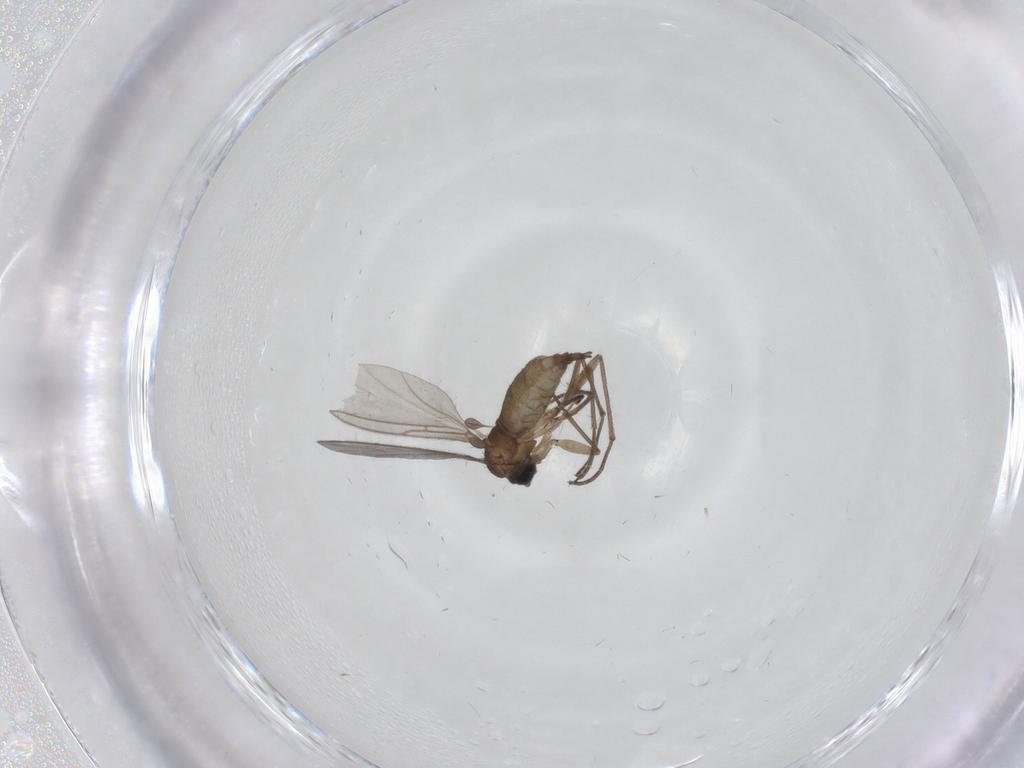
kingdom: Animalia
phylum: Arthropoda
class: Insecta
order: Diptera
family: Sciaridae
